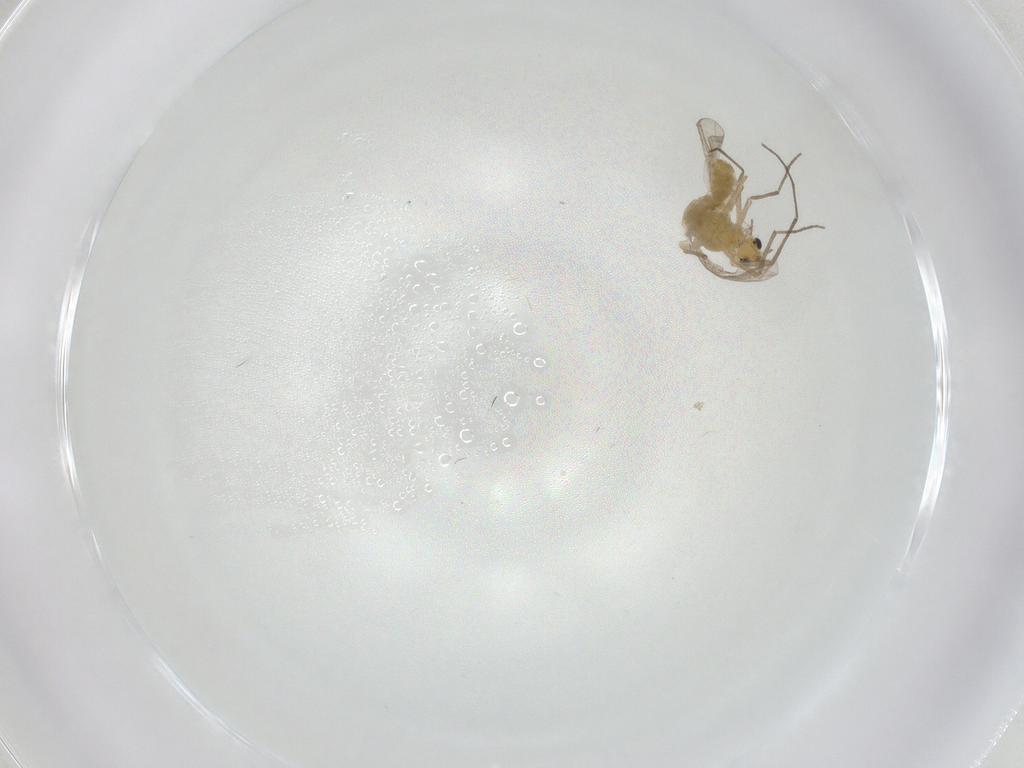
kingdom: Animalia
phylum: Arthropoda
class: Insecta
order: Diptera
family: Chironomidae
